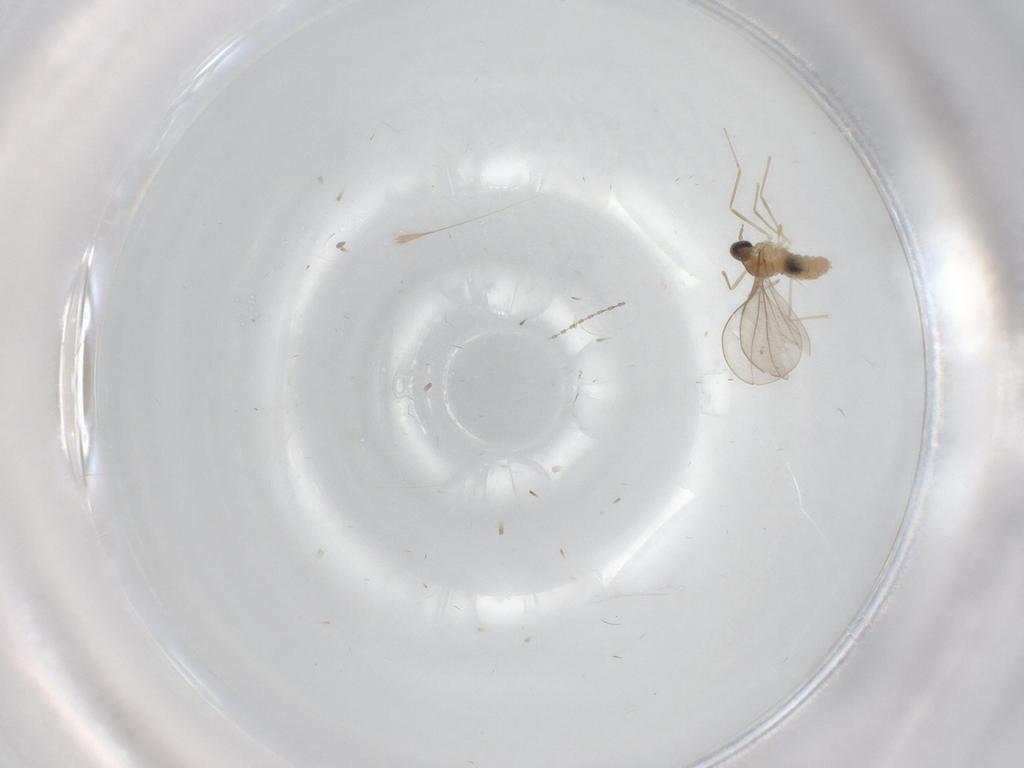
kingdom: Animalia
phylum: Arthropoda
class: Insecta
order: Diptera
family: Cecidomyiidae
